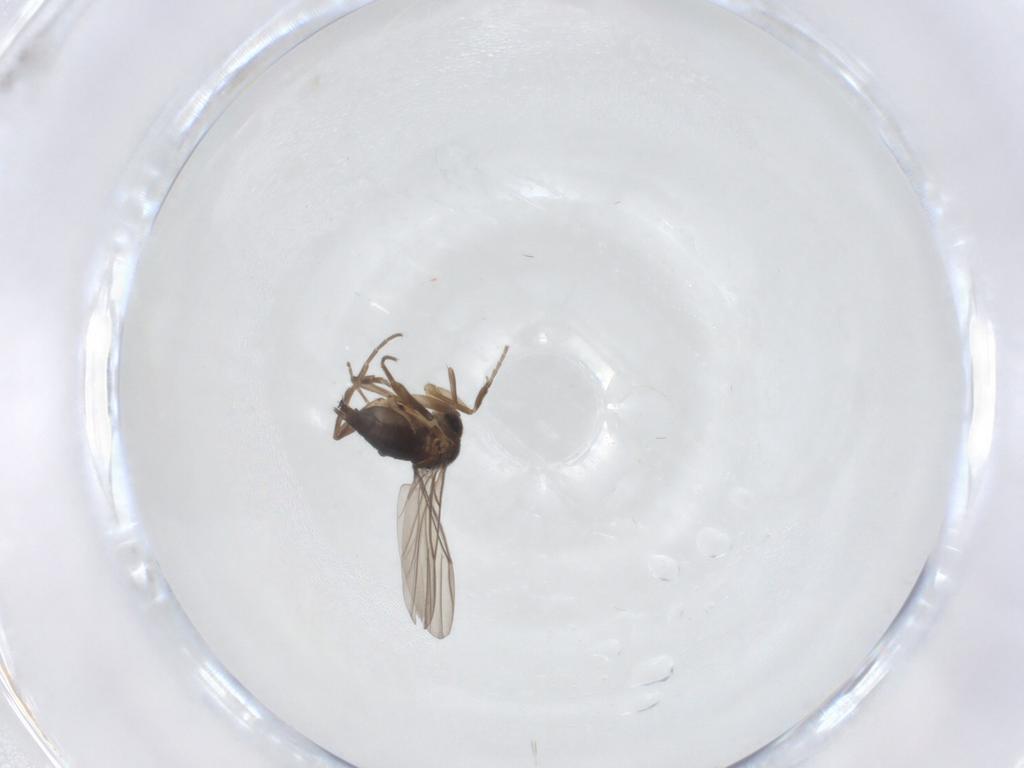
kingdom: Animalia
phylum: Arthropoda
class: Insecta
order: Diptera
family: Phoridae
